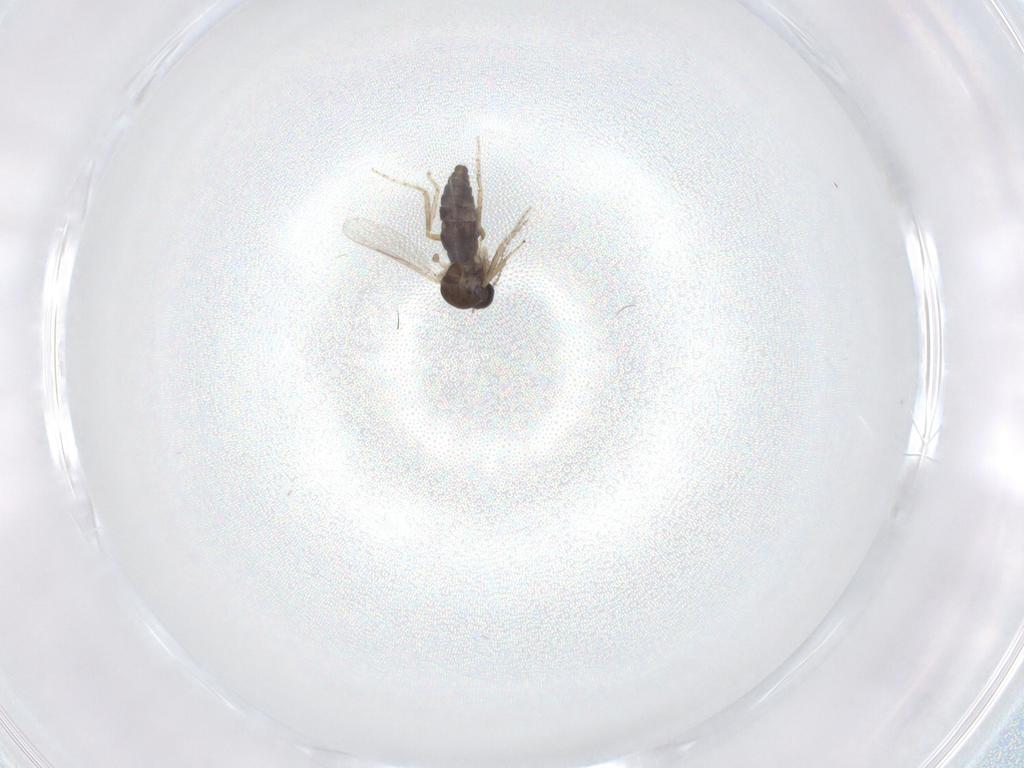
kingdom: Animalia
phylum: Arthropoda
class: Insecta
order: Diptera
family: Ceratopogonidae
